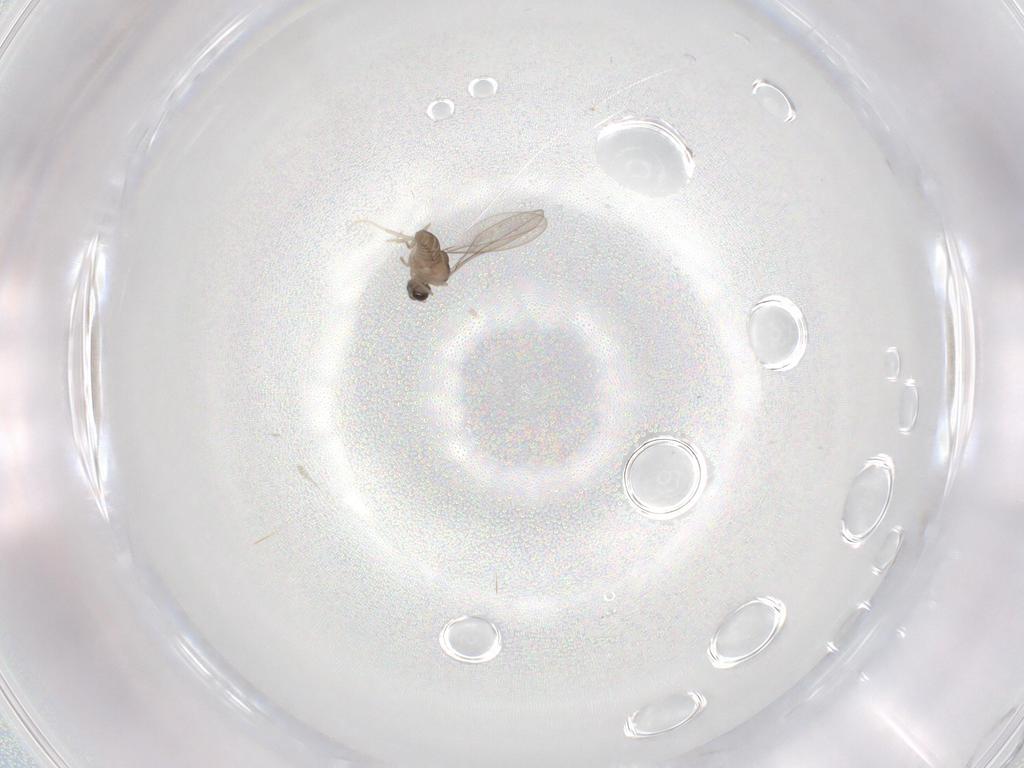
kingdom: Animalia
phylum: Arthropoda
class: Insecta
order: Diptera
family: Cecidomyiidae
